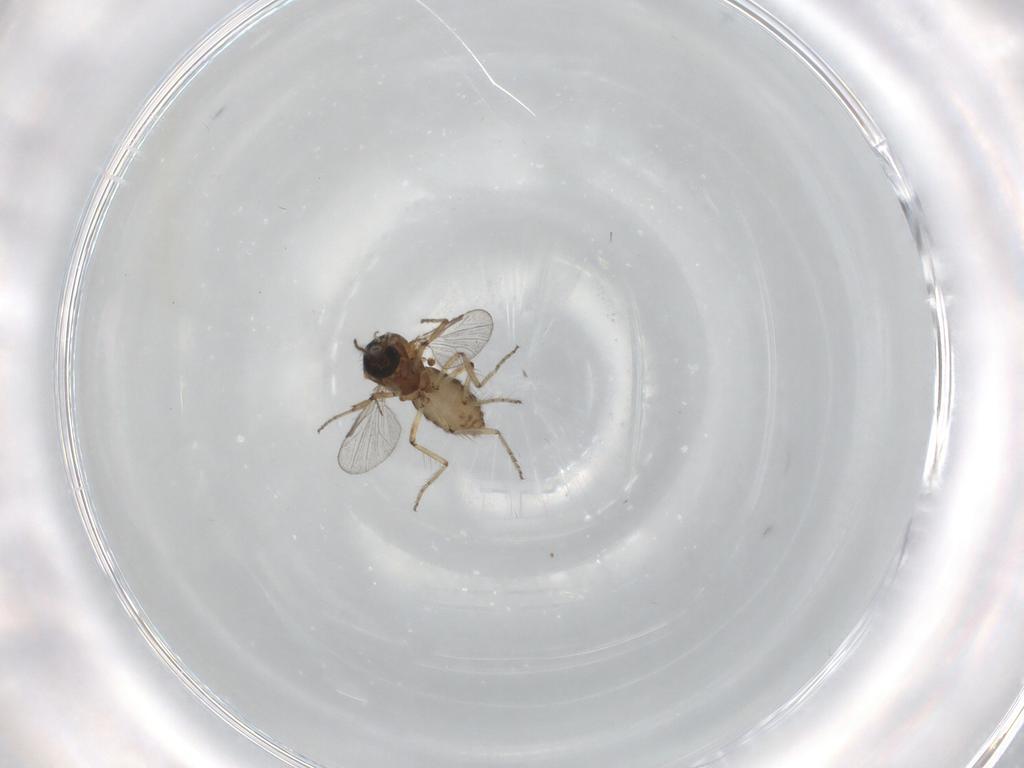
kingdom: Animalia
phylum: Arthropoda
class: Insecta
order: Diptera
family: Ceratopogonidae
